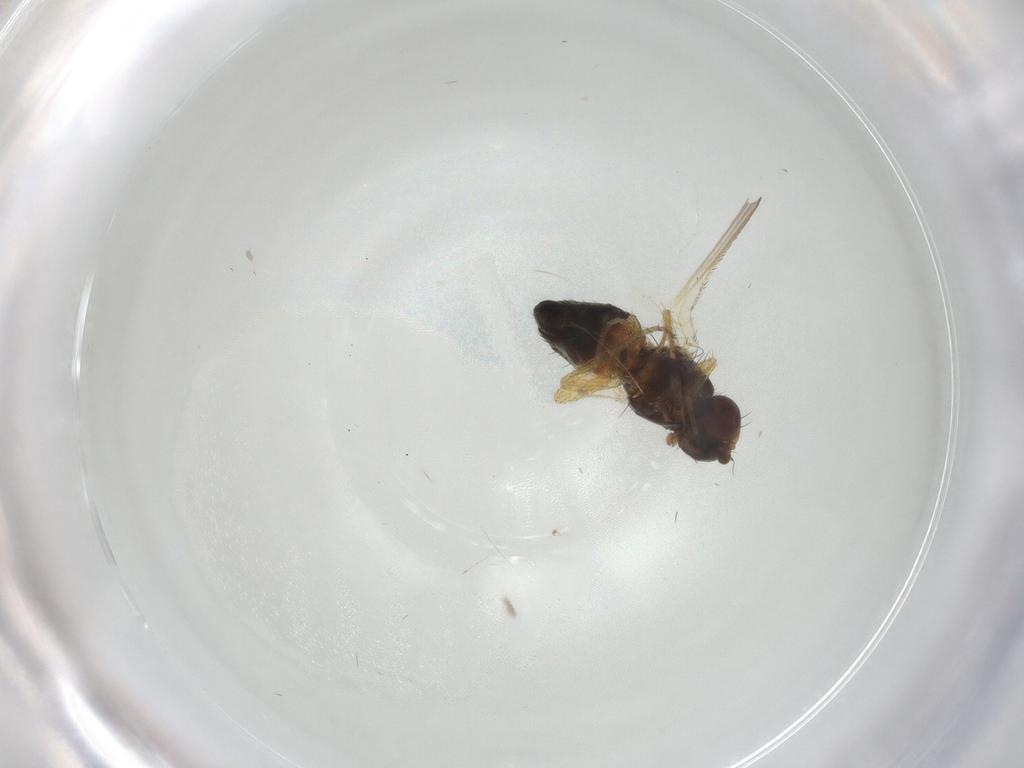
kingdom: Animalia
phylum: Arthropoda
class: Insecta
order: Diptera
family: Heleomyzidae
